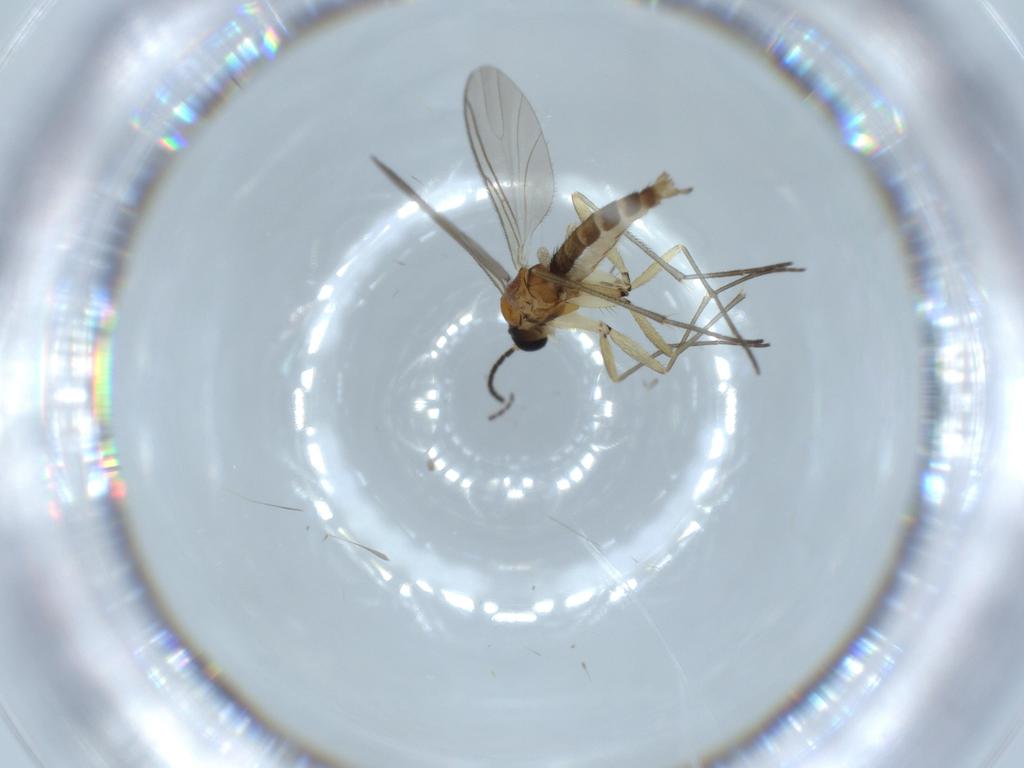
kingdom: Animalia
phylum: Arthropoda
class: Insecta
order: Diptera
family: Sciaridae
